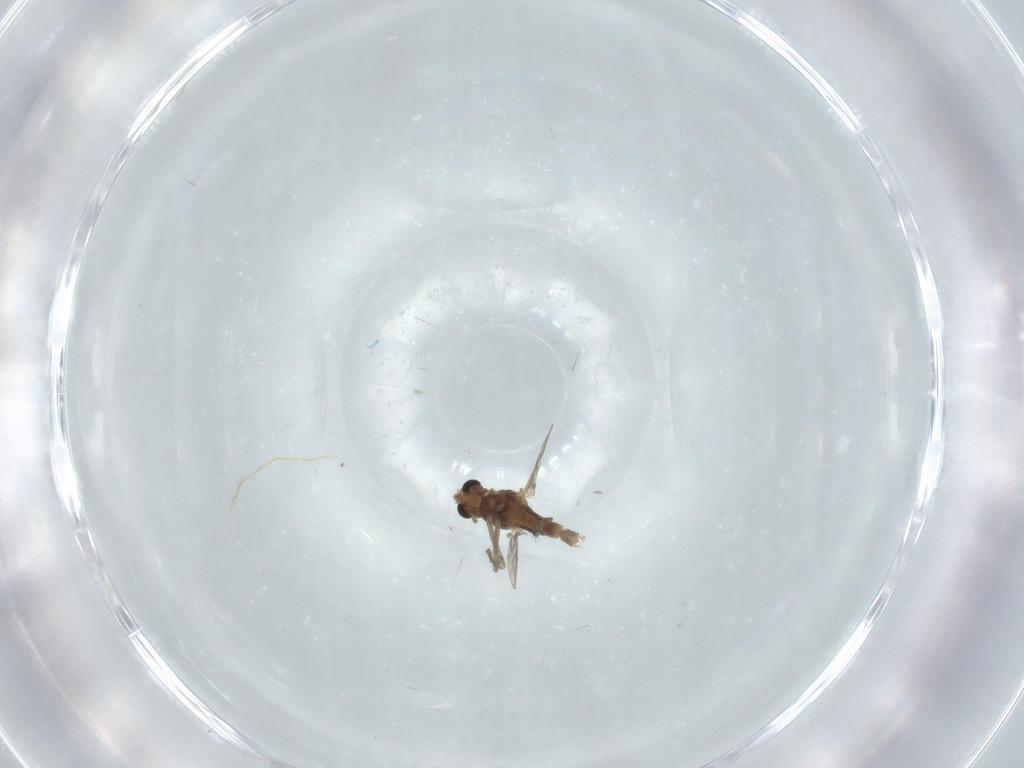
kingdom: Animalia
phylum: Arthropoda
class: Insecta
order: Diptera
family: Chironomidae
